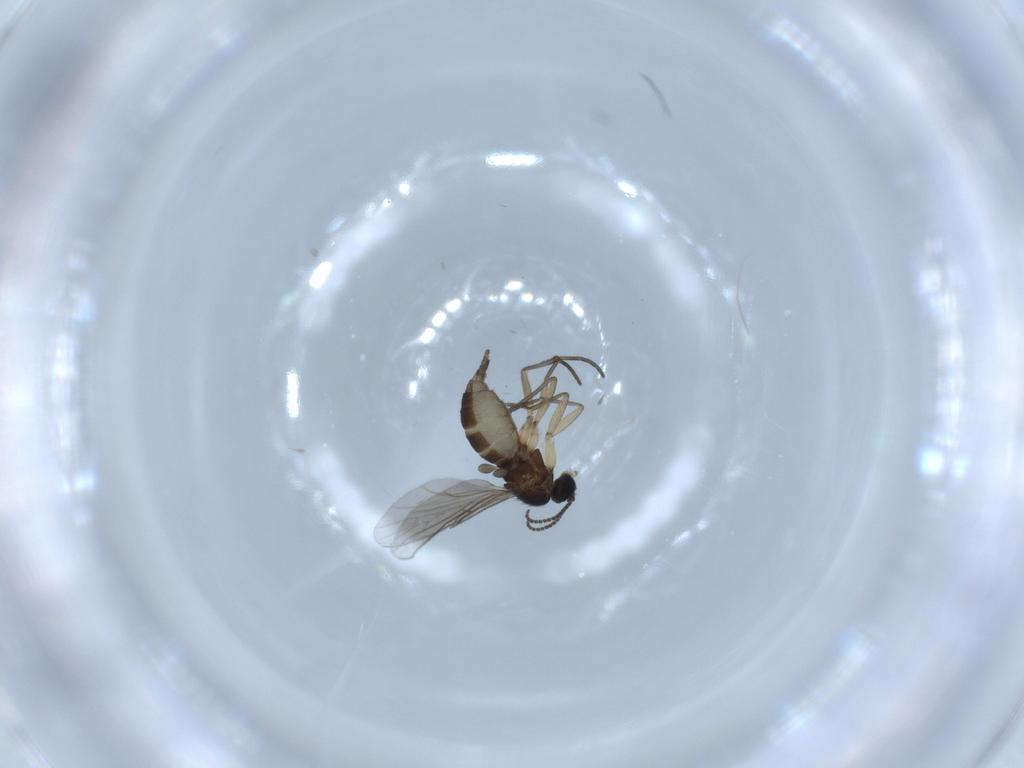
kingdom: Animalia
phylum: Arthropoda
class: Insecta
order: Diptera
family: Sciaridae
